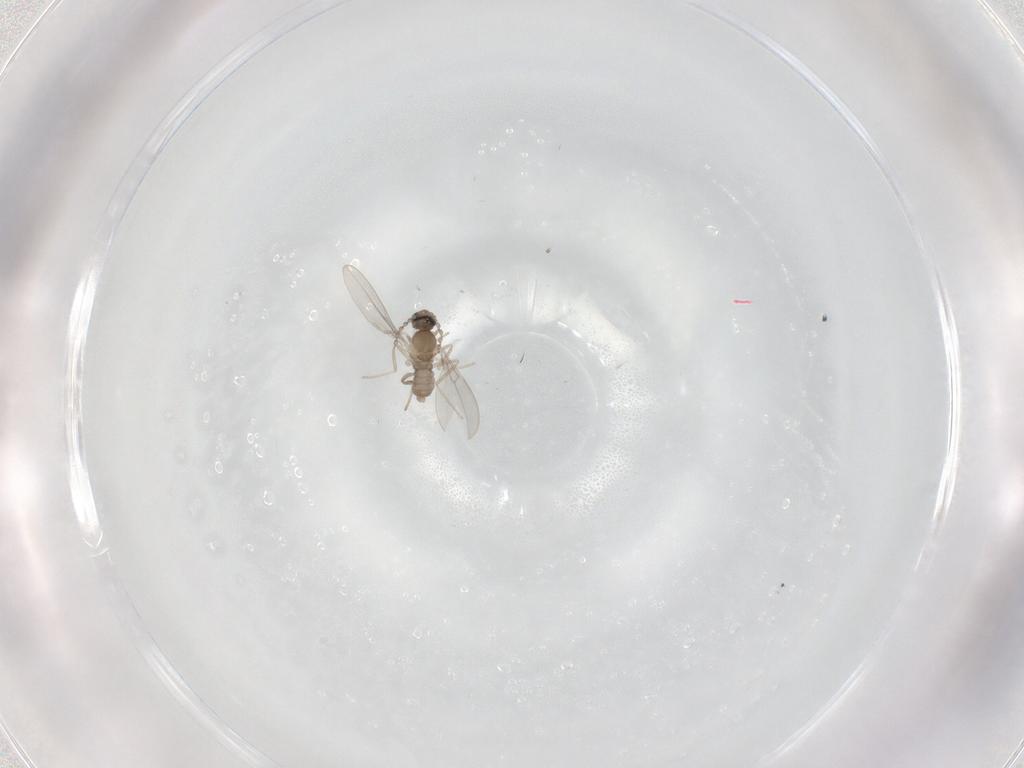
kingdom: Animalia
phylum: Arthropoda
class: Insecta
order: Diptera
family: Cecidomyiidae
